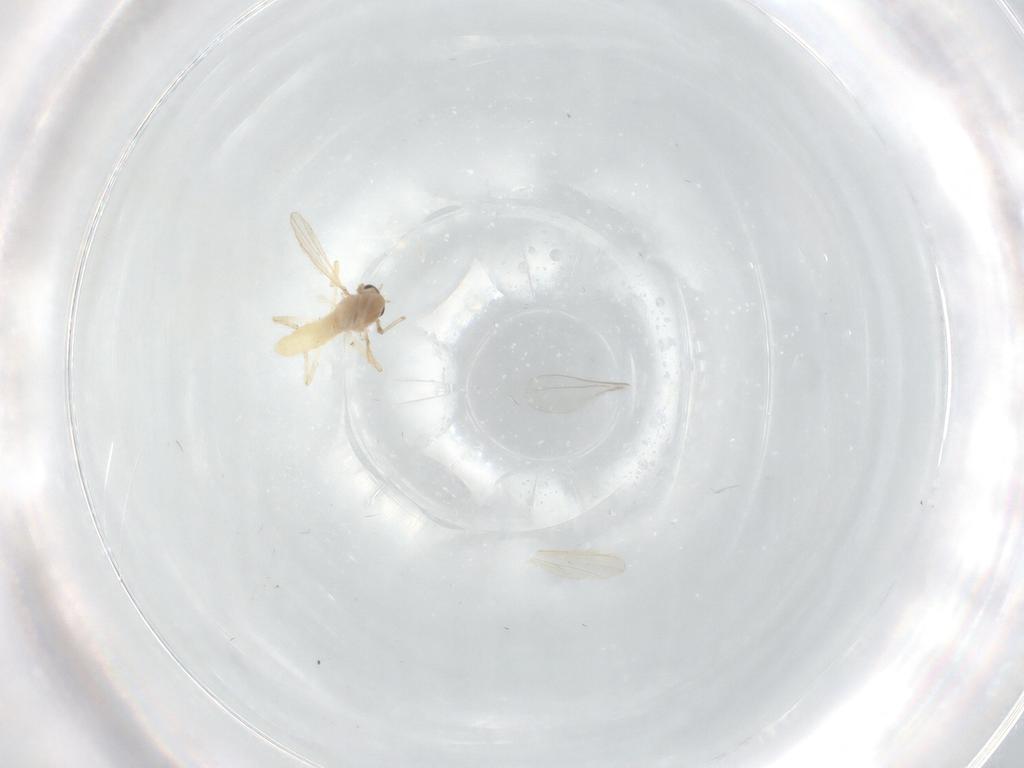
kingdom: Animalia
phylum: Arthropoda
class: Insecta
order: Diptera
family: Chironomidae
